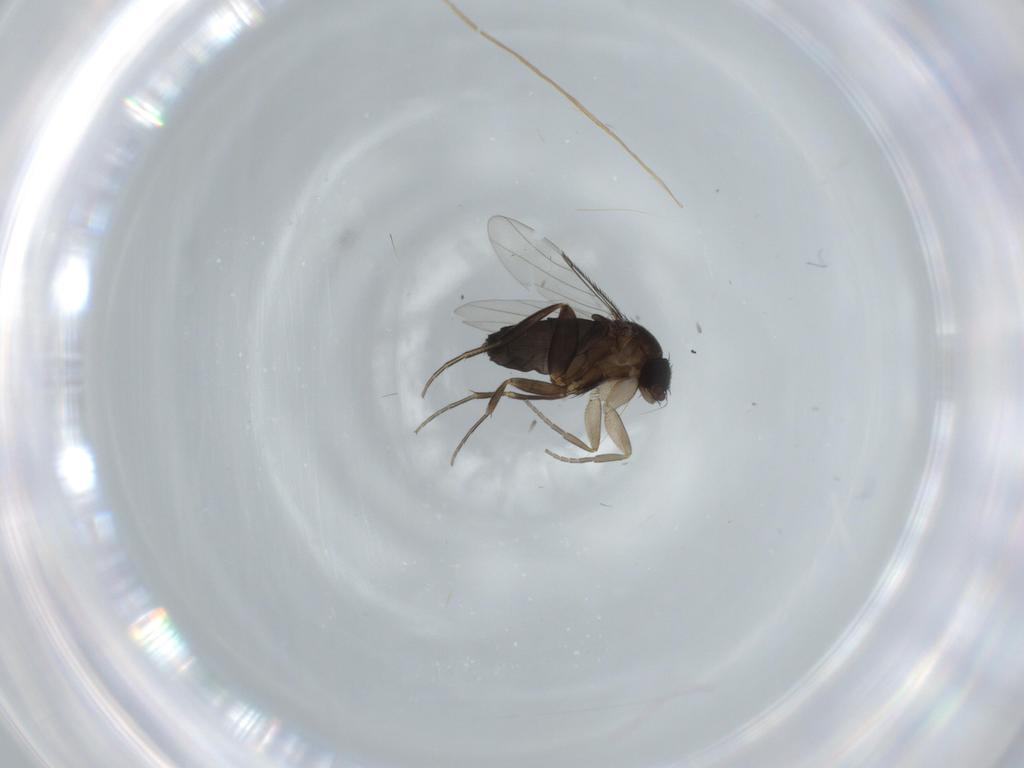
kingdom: Animalia
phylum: Arthropoda
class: Insecta
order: Diptera
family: Phoridae
